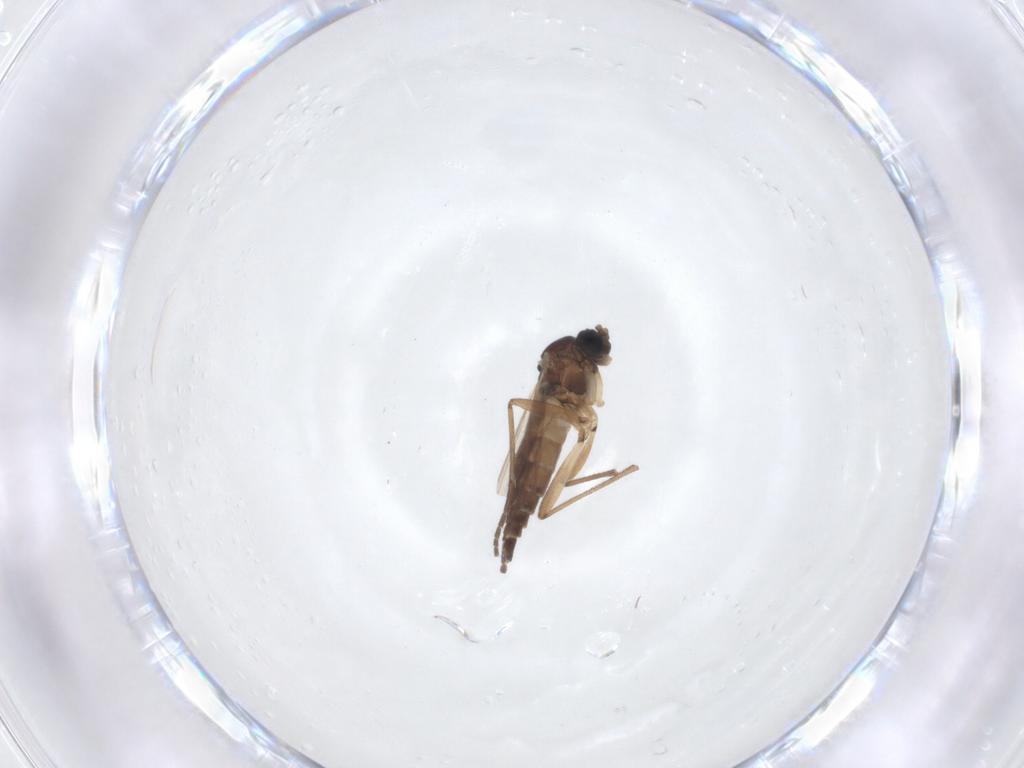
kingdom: Animalia
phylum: Arthropoda
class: Insecta
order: Diptera
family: Sciaridae
